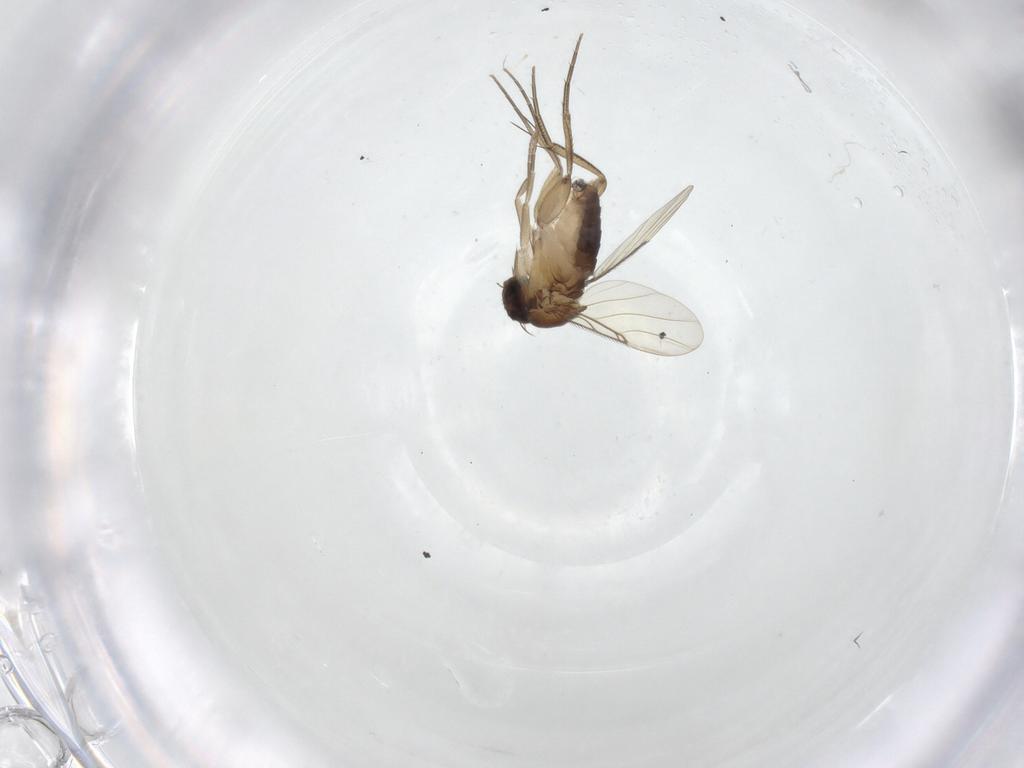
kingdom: Animalia
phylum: Arthropoda
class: Insecta
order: Diptera
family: Phoridae
